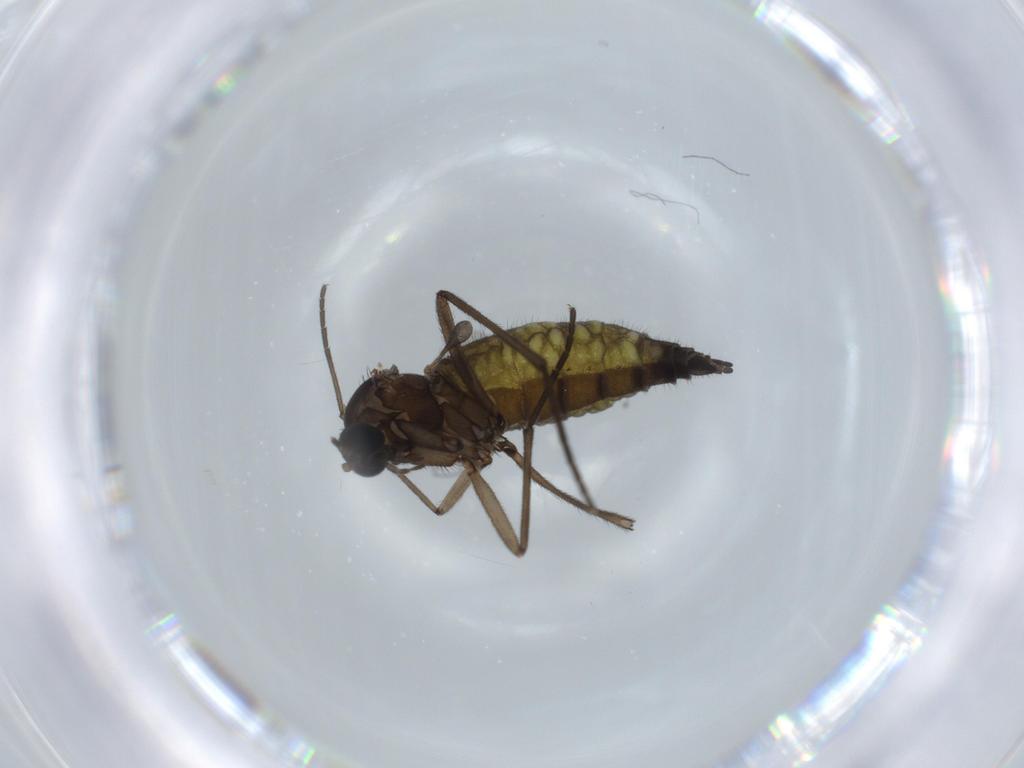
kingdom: Animalia
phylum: Arthropoda
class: Insecta
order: Diptera
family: Sciaridae
